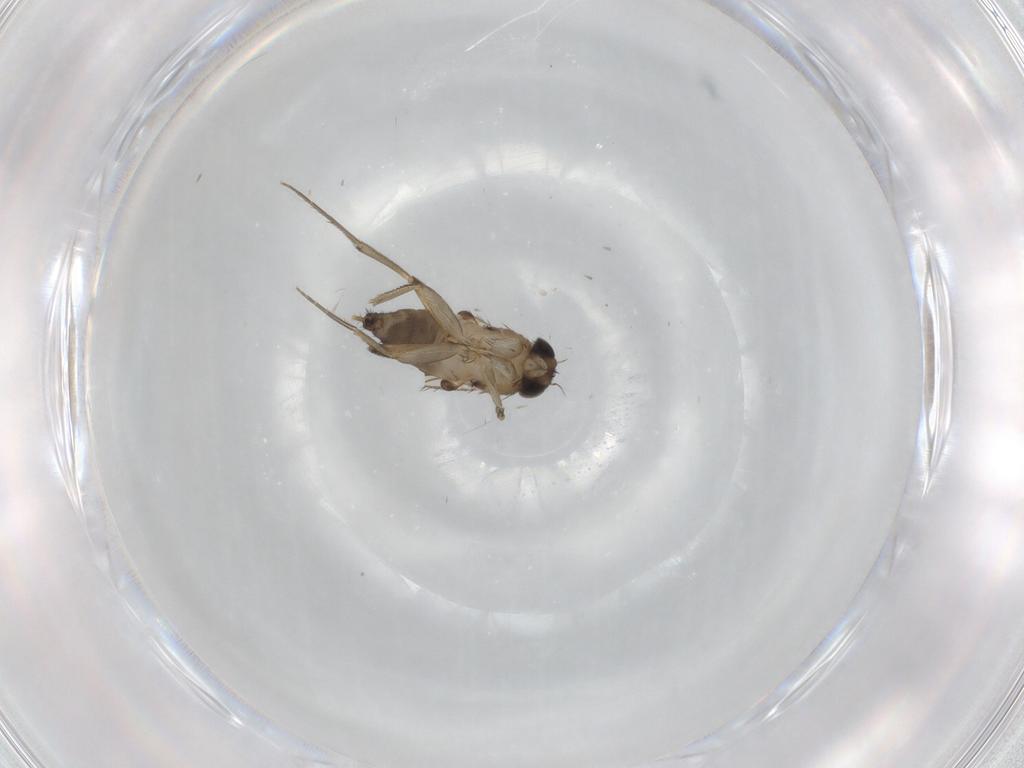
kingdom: Animalia
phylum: Arthropoda
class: Insecta
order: Diptera
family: Phoridae
